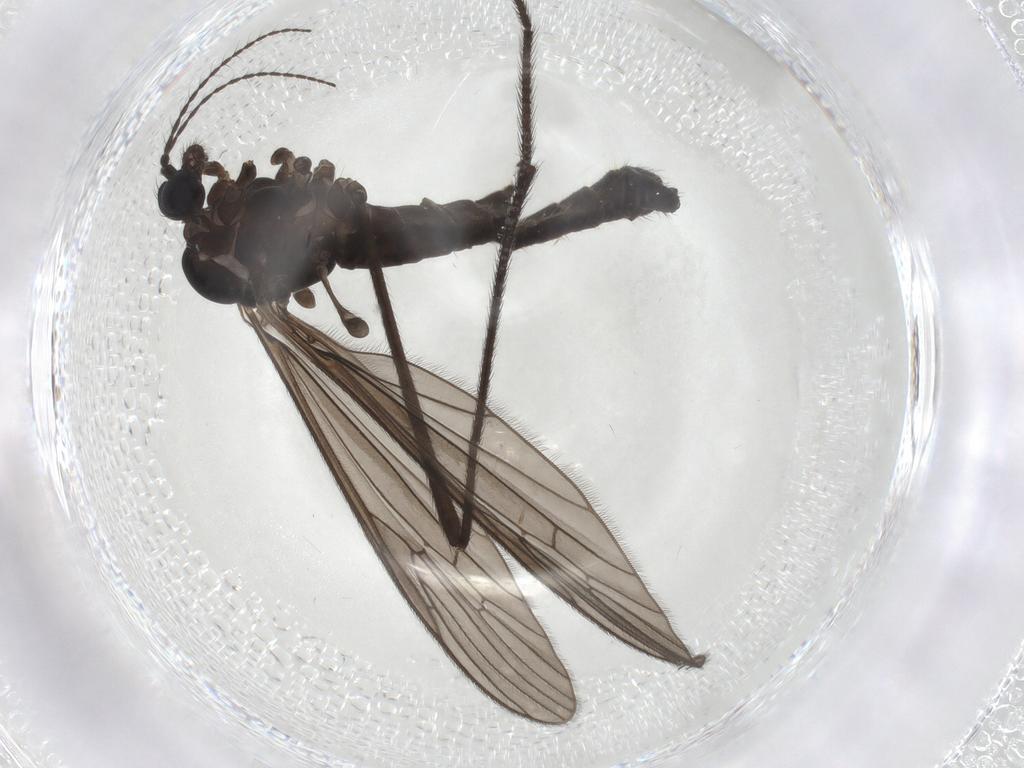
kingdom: Animalia
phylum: Arthropoda
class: Insecta
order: Diptera
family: Limoniidae
